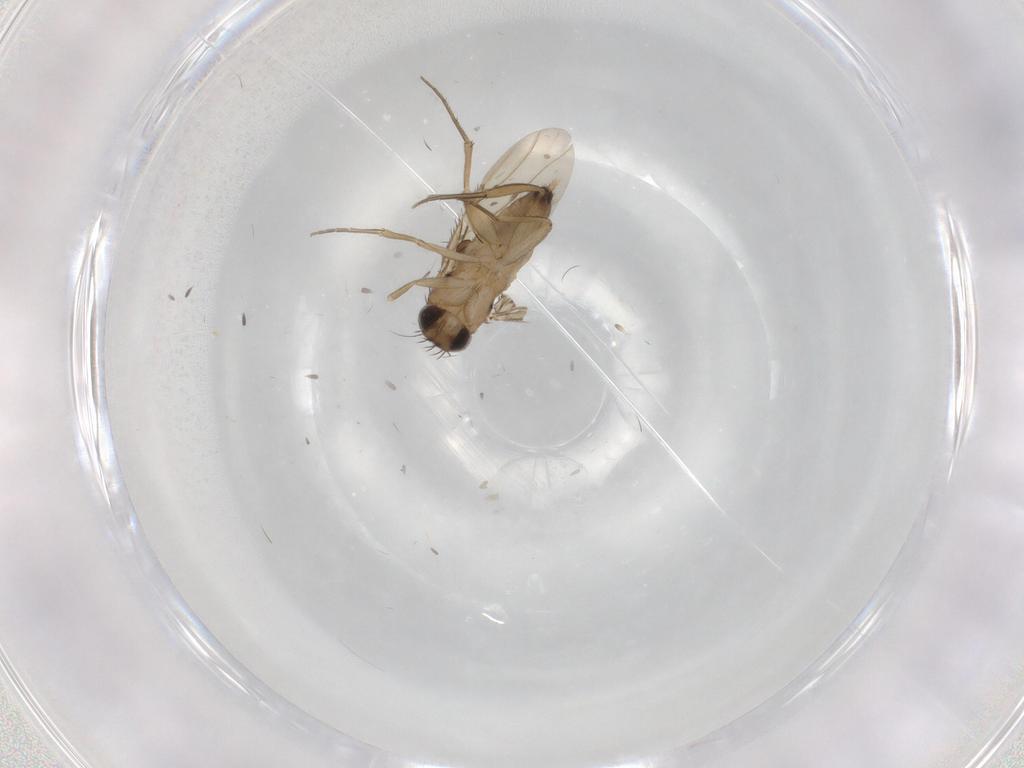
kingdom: Animalia
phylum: Arthropoda
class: Insecta
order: Diptera
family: Phoridae
